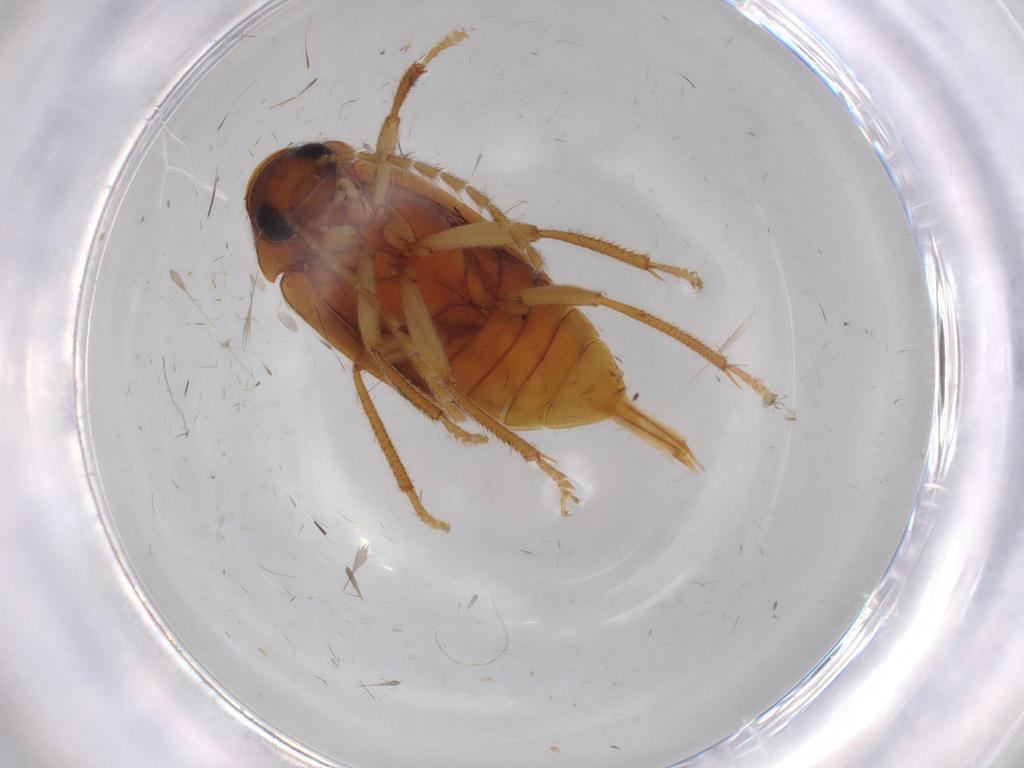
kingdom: Animalia
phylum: Arthropoda
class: Insecta
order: Coleoptera
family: Ptilodactylidae
